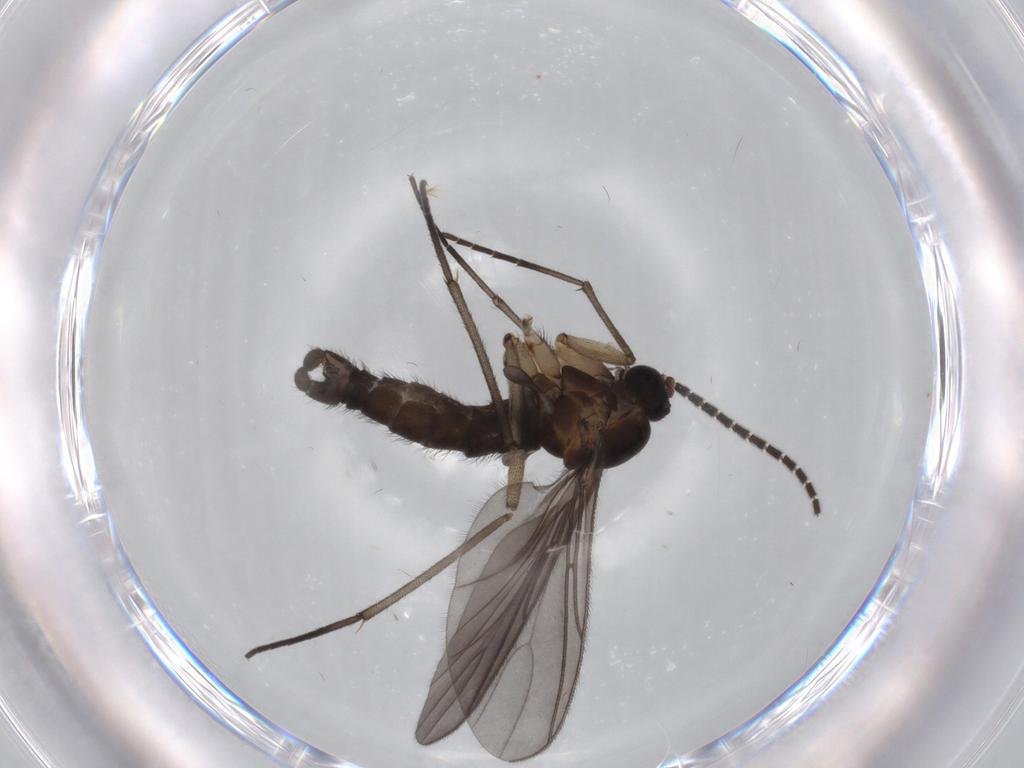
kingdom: Animalia
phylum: Arthropoda
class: Insecta
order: Diptera
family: Sciaridae
